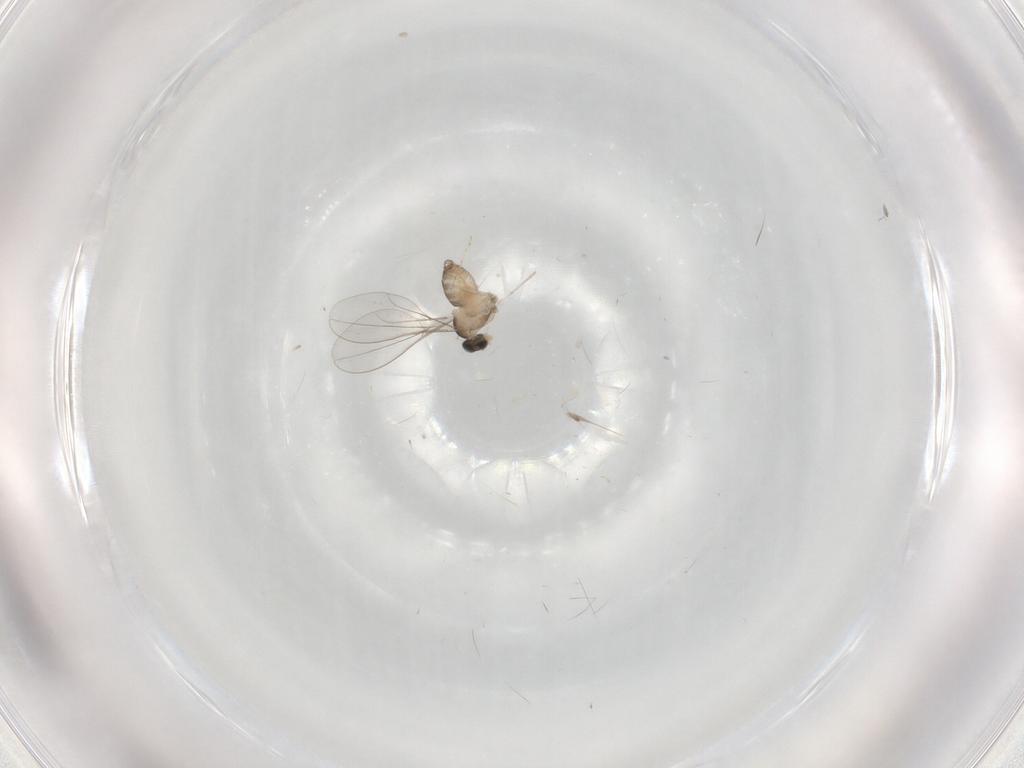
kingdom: Animalia
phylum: Arthropoda
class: Insecta
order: Diptera
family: Cecidomyiidae
